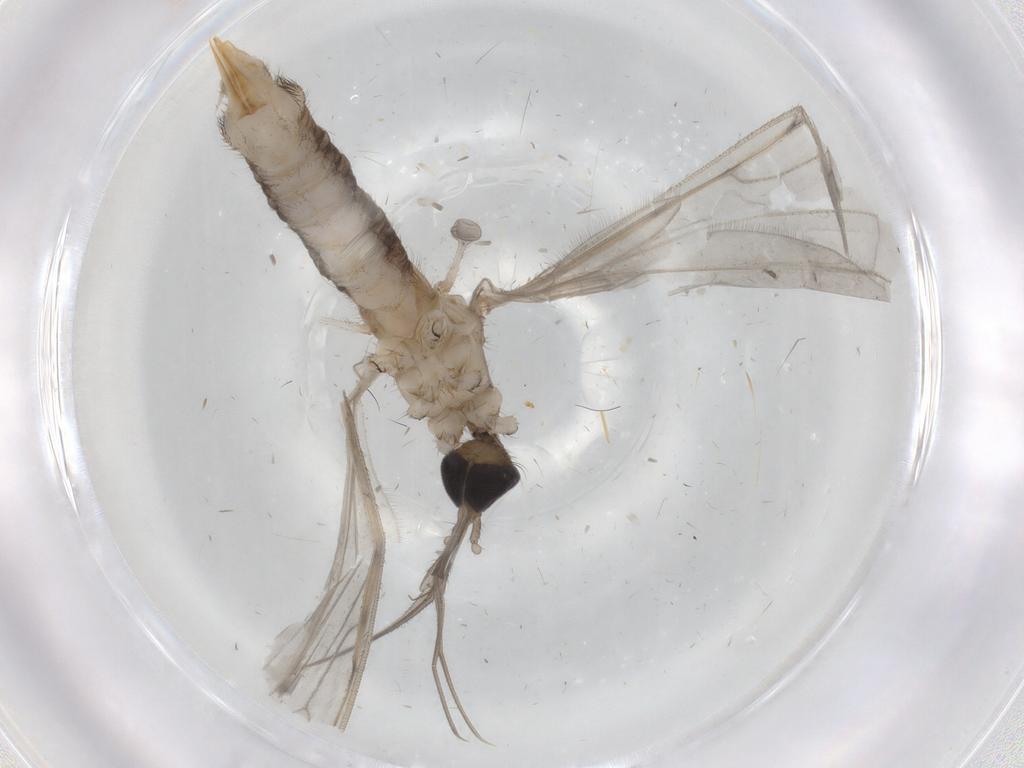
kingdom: Animalia
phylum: Arthropoda
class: Insecta
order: Diptera
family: Limoniidae
